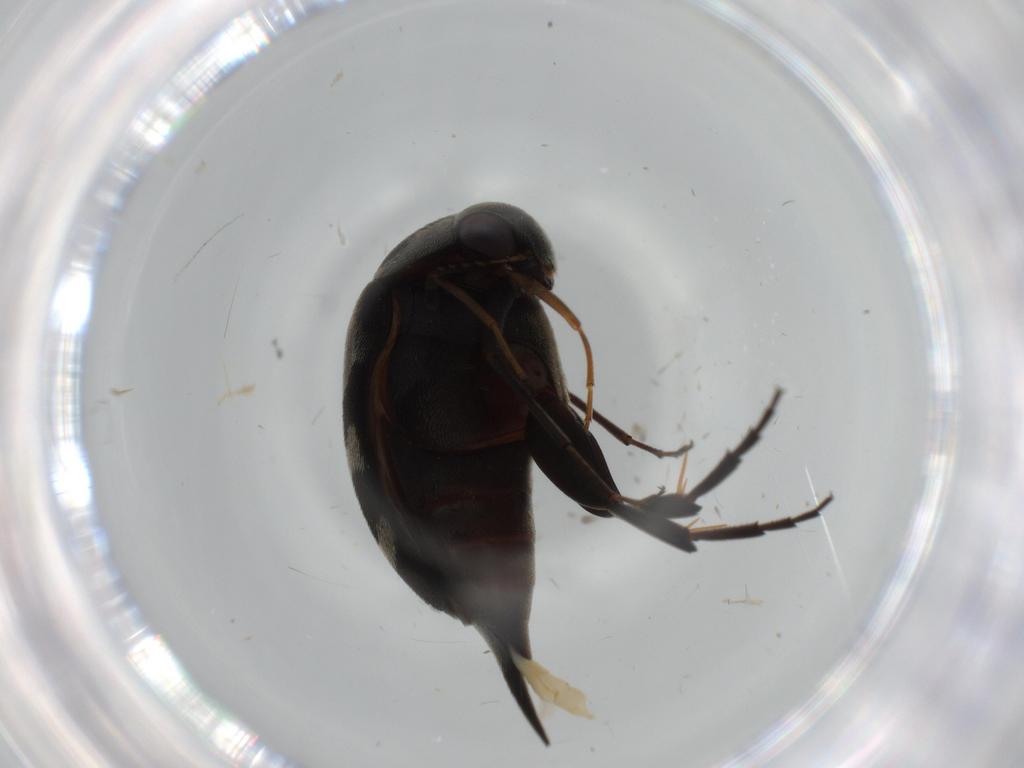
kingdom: Animalia
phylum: Arthropoda
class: Insecta
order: Coleoptera
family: Mordellidae
